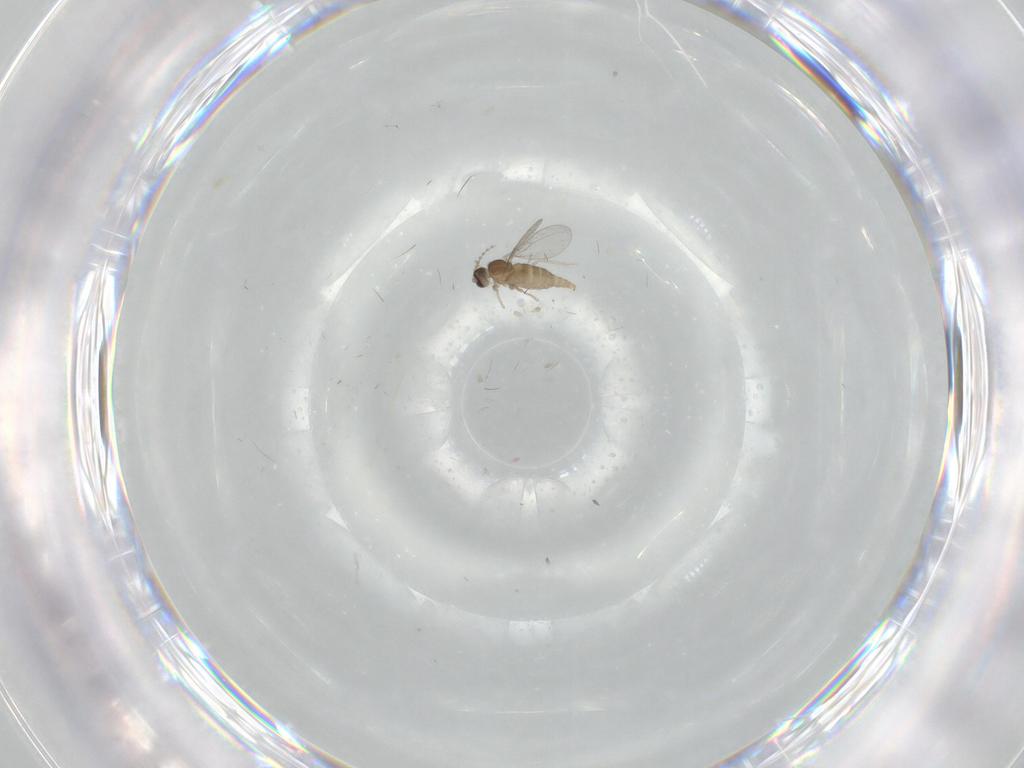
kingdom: Animalia
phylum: Arthropoda
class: Insecta
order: Diptera
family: Cecidomyiidae
